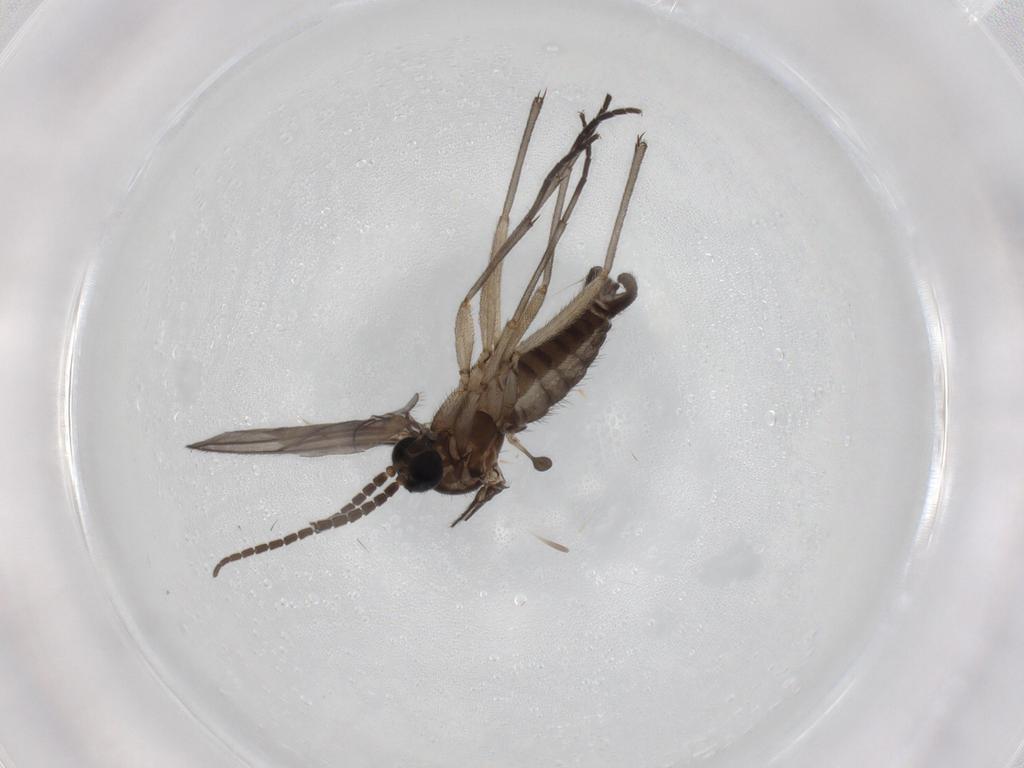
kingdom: Animalia
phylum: Arthropoda
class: Insecta
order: Diptera
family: Sciaridae
